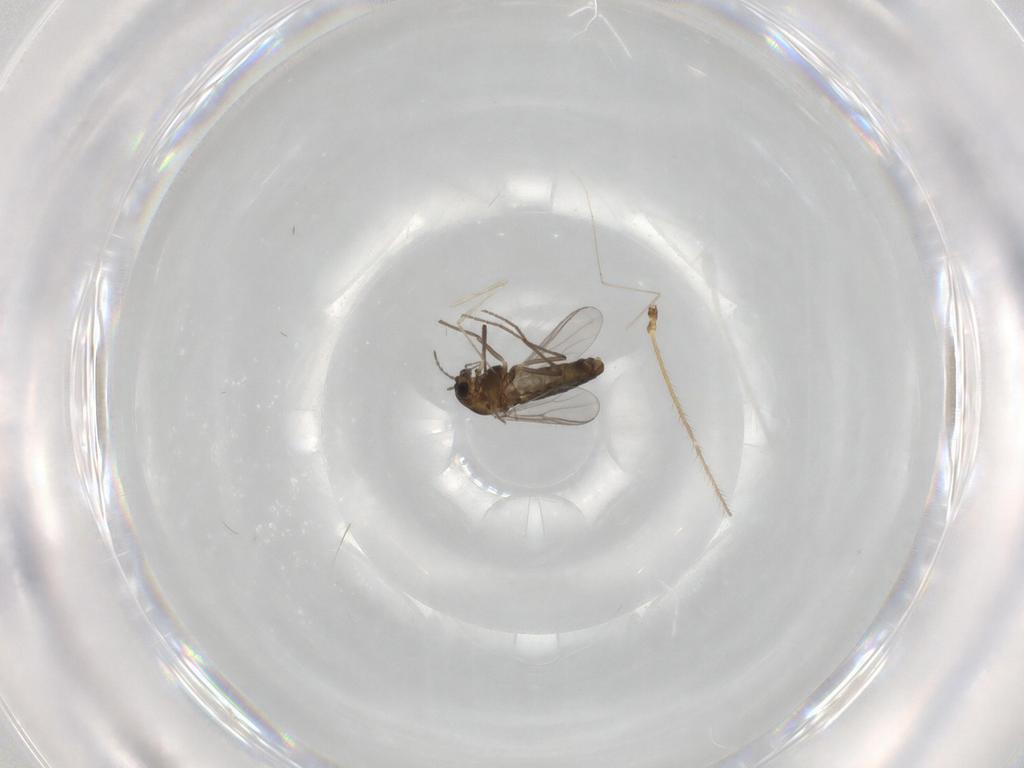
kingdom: Animalia
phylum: Arthropoda
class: Insecta
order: Diptera
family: Chironomidae
